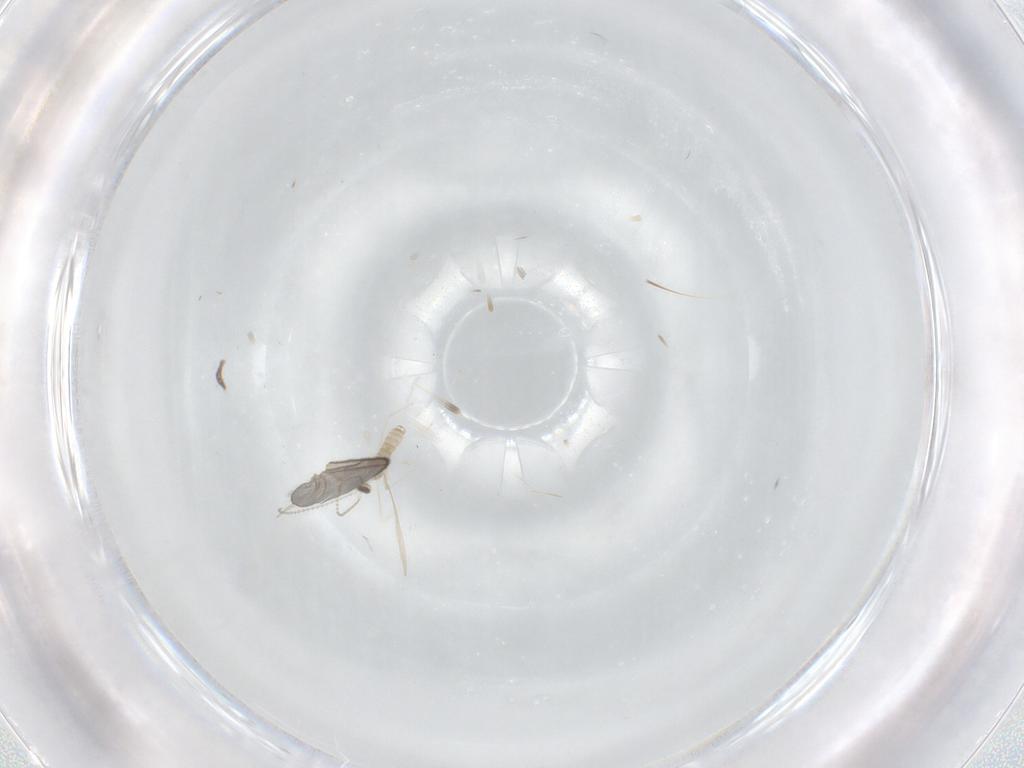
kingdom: Animalia
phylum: Arthropoda
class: Insecta
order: Diptera
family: Cecidomyiidae
